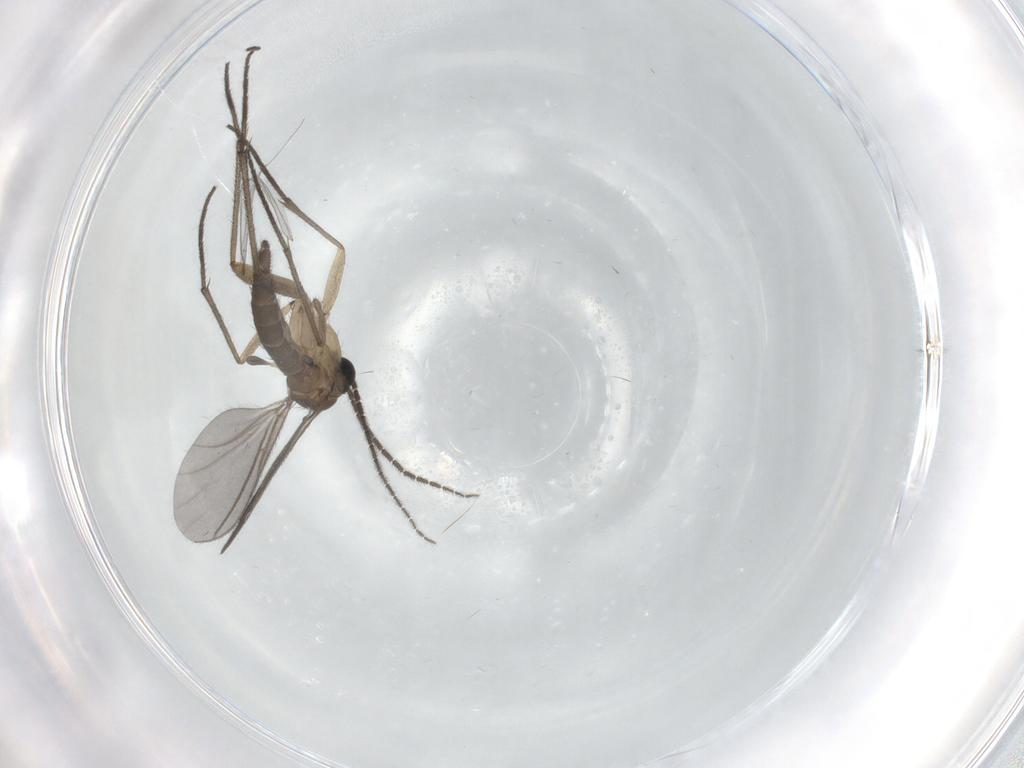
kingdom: Animalia
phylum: Arthropoda
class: Insecta
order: Diptera
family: Sciaridae
